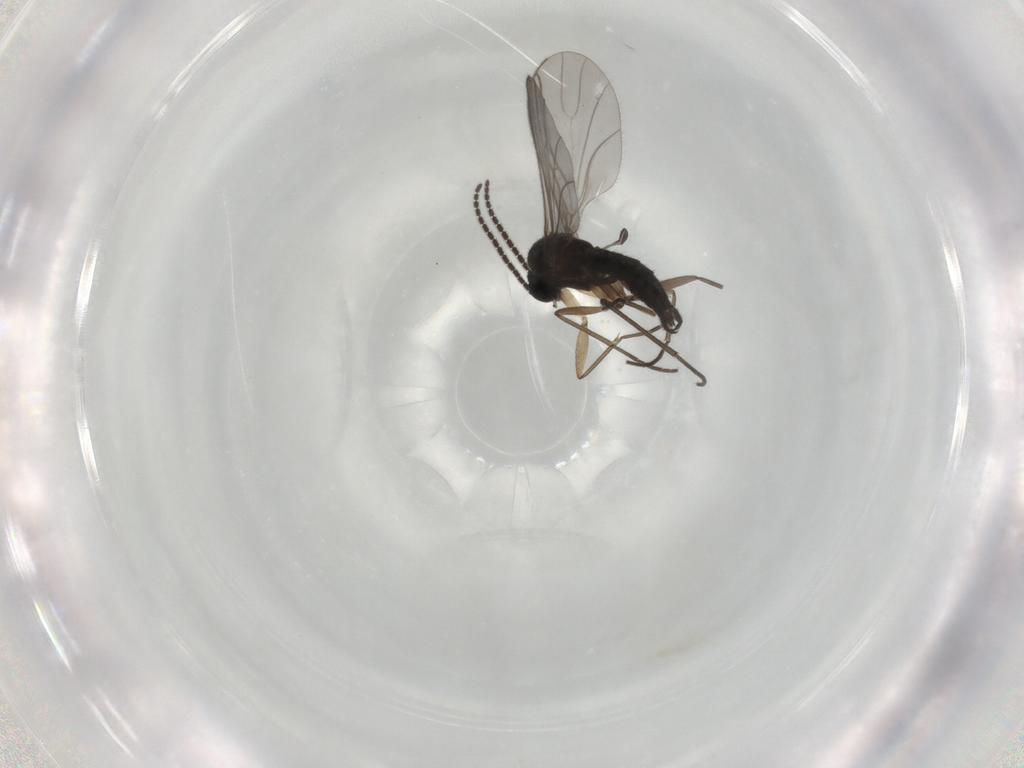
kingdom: Animalia
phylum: Arthropoda
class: Insecta
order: Diptera
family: Sciaridae
